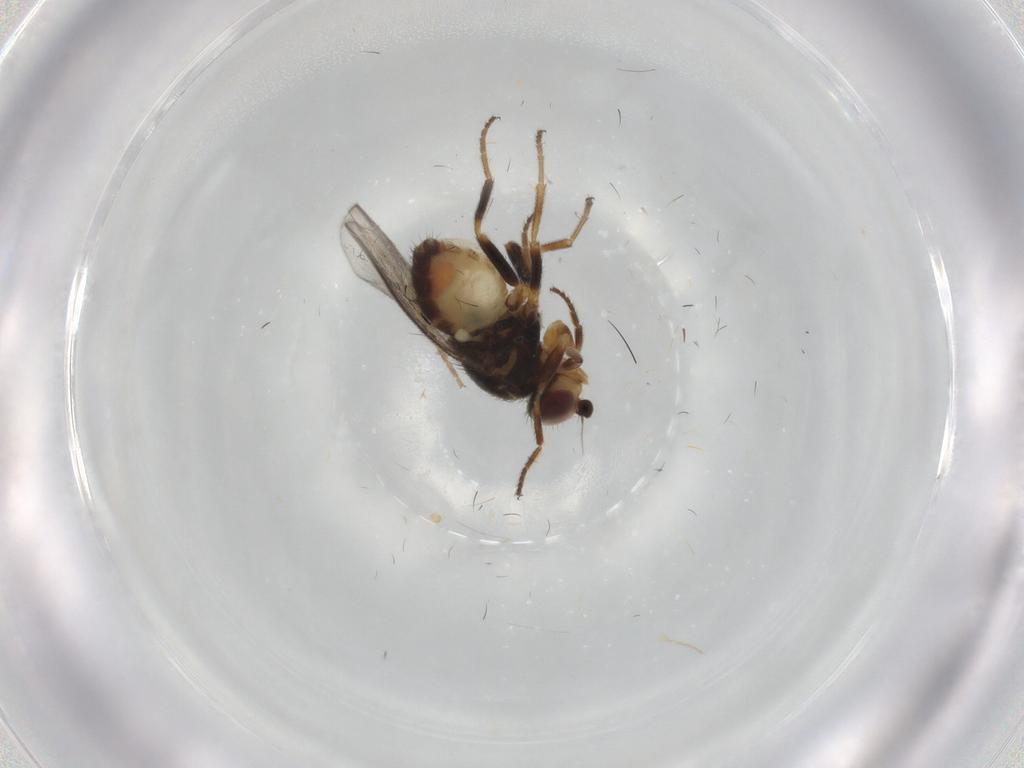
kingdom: Animalia
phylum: Arthropoda
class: Insecta
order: Diptera
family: Chloropidae
